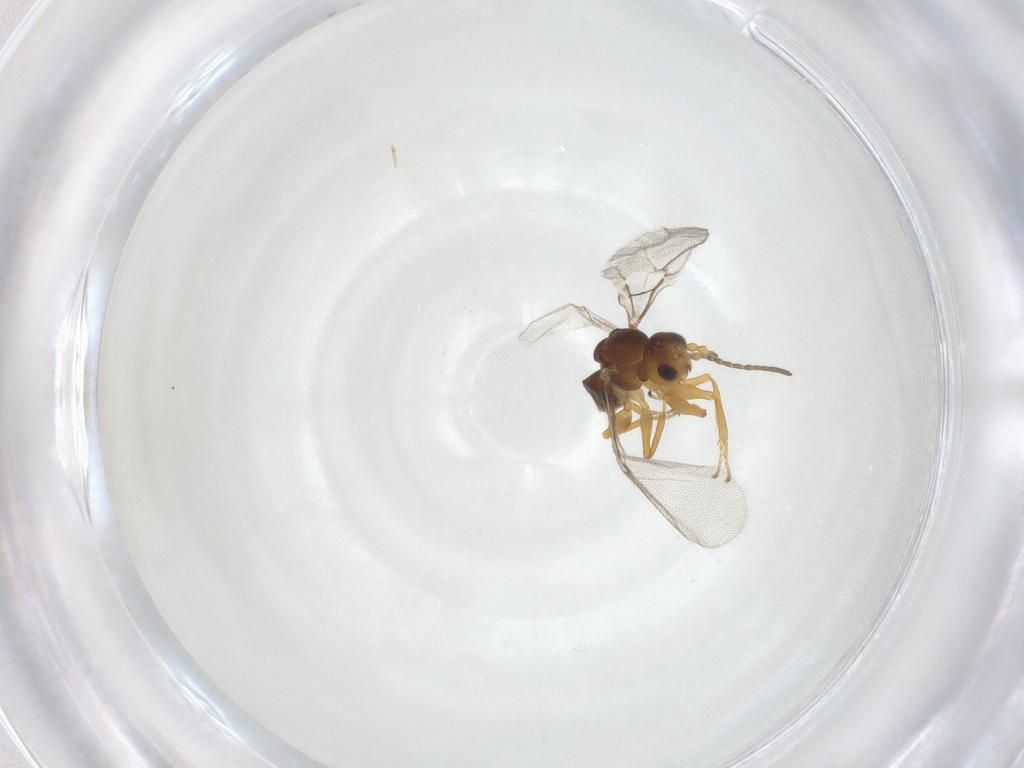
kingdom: Animalia
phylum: Arthropoda
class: Insecta
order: Hymenoptera
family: Cynipidae
